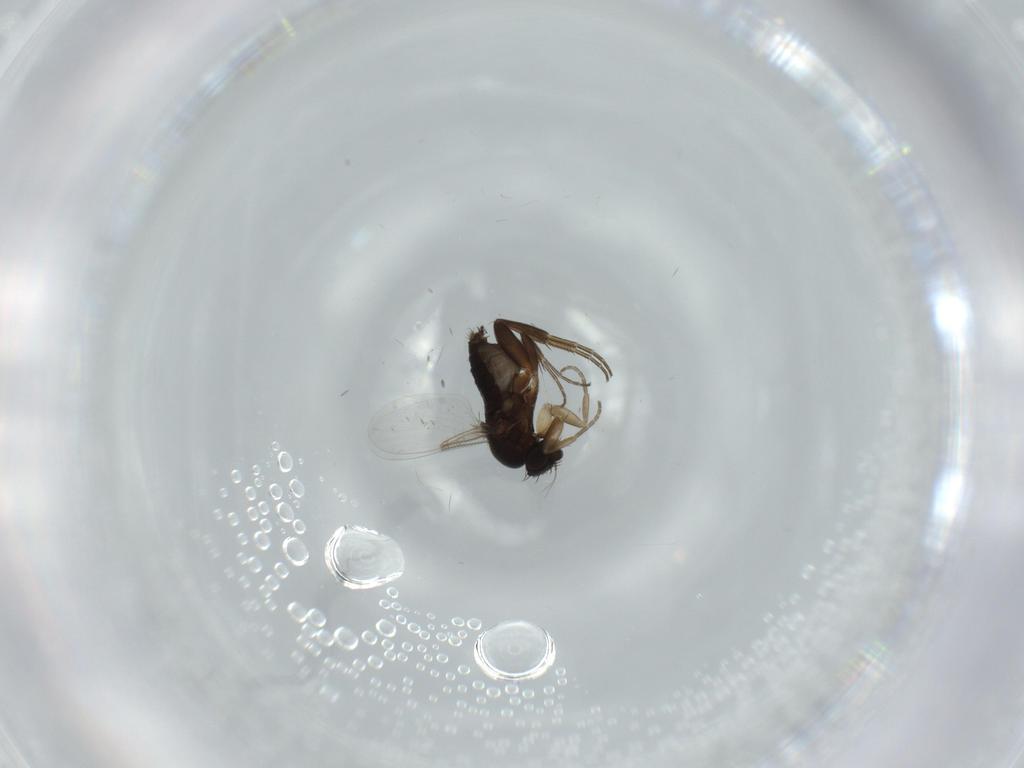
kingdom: Animalia
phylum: Arthropoda
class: Insecta
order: Diptera
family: Phoridae
